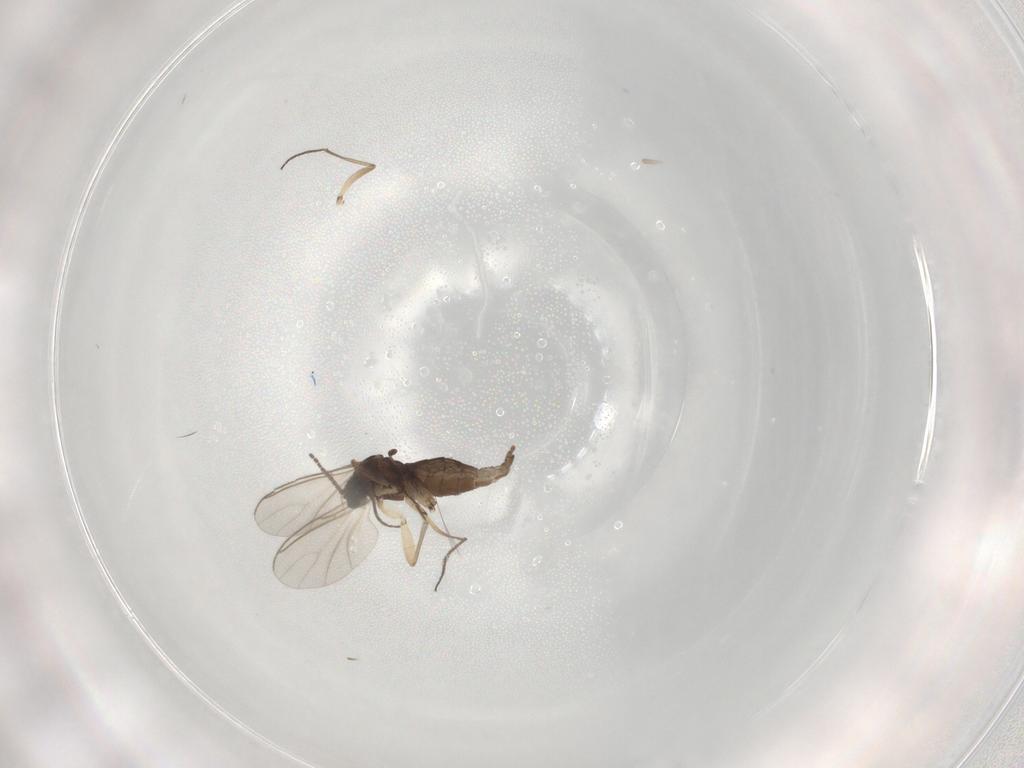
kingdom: Animalia
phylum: Arthropoda
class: Insecta
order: Diptera
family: Sciaridae
